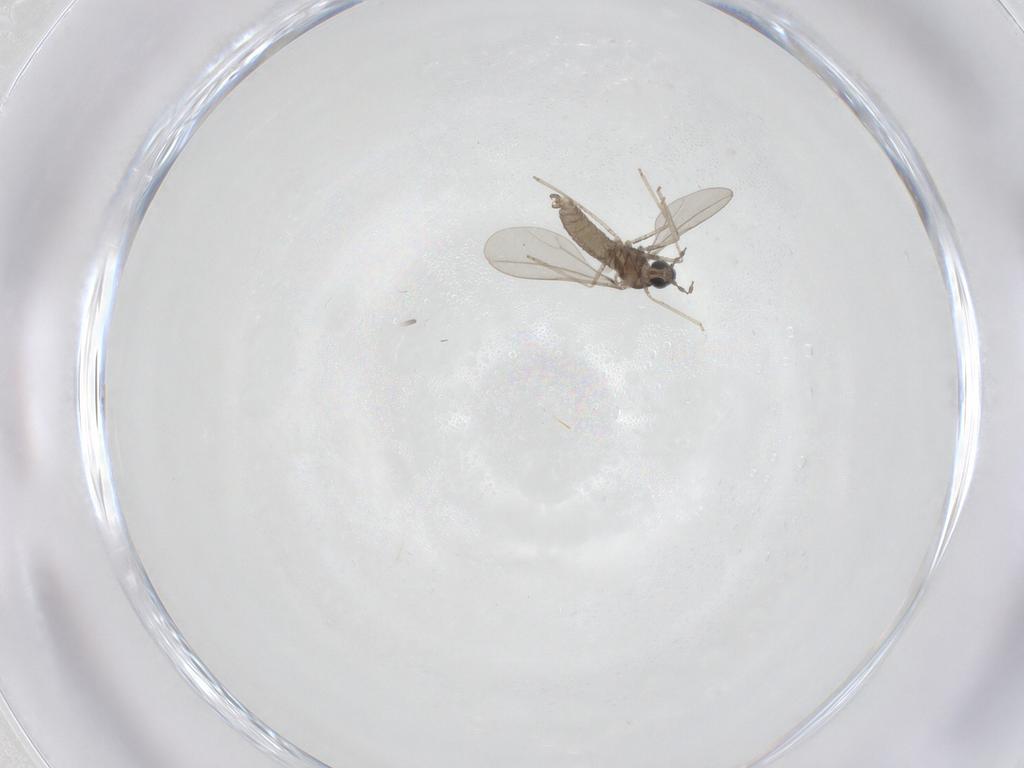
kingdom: Animalia
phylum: Arthropoda
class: Insecta
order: Diptera
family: Cecidomyiidae
